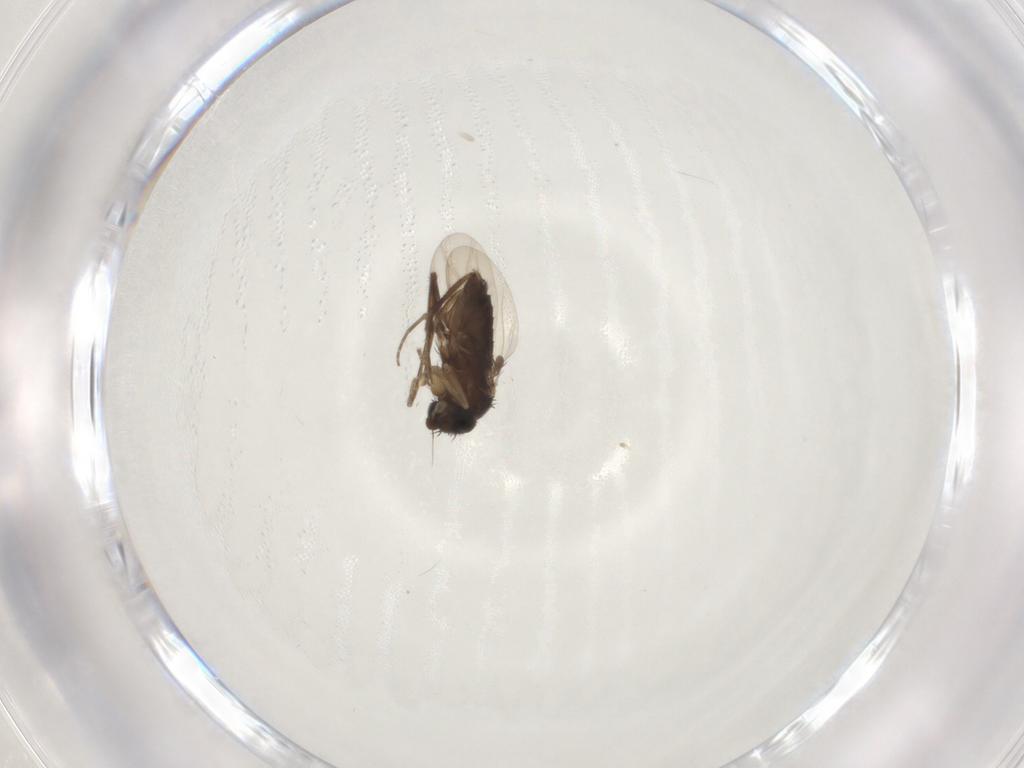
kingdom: Animalia
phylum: Arthropoda
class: Insecta
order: Diptera
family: Phoridae
